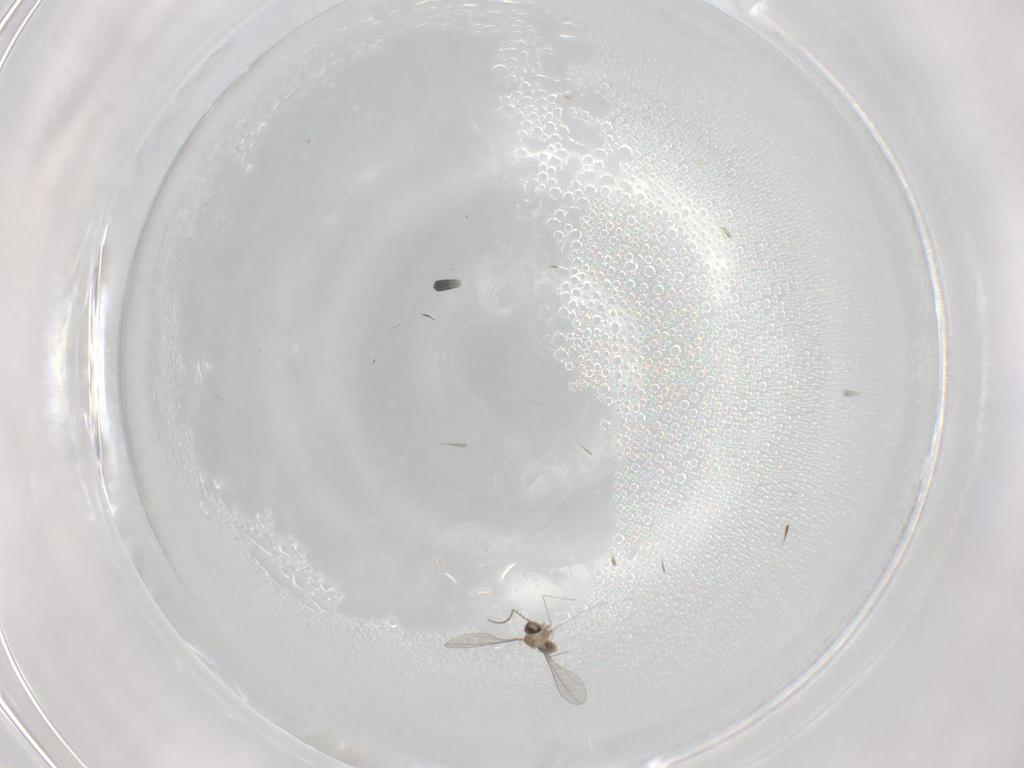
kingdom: Animalia
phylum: Arthropoda
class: Insecta
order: Diptera
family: Cecidomyiidae
